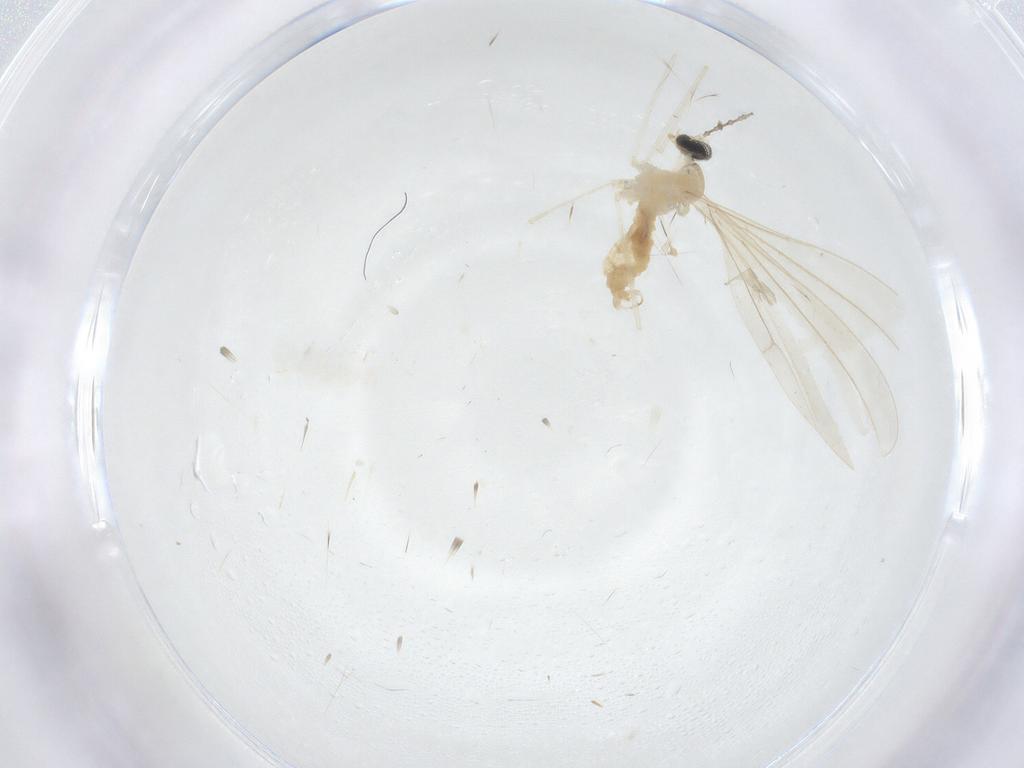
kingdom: Animalia
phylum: Arthropoda
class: Insecta
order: Diptera
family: Cecidomyiidae
